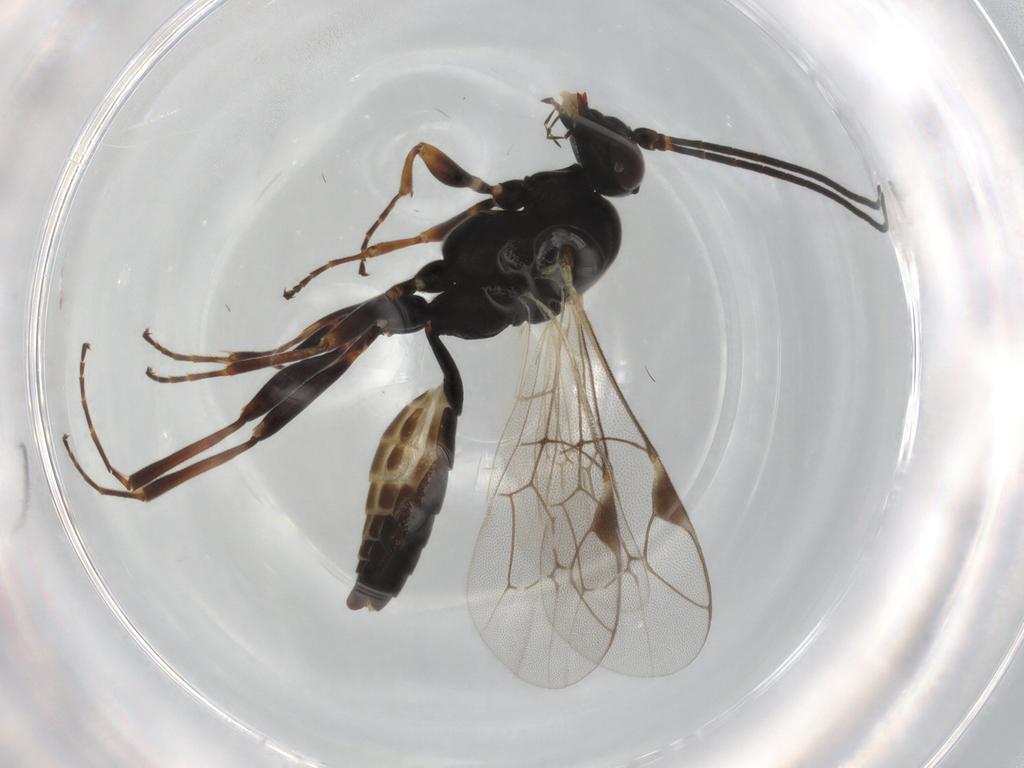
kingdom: Animalia
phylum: Arthropoda
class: Insecta
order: Hymenoptera
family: Ichneumonidae
